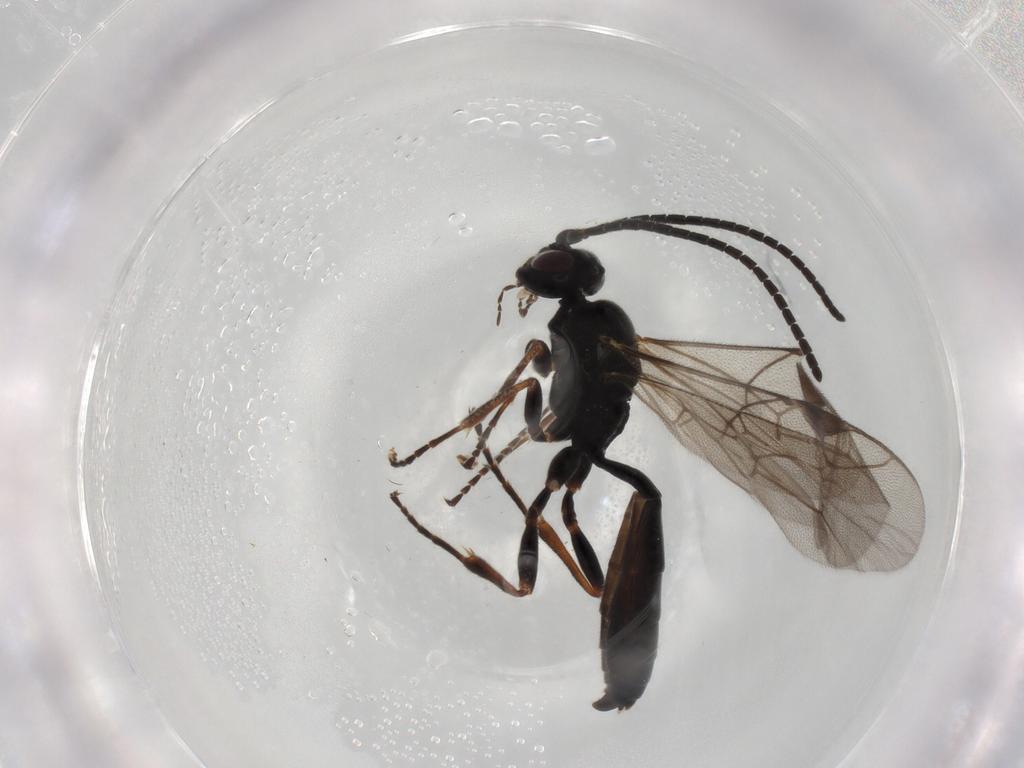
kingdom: Animalia
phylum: Arthropoda
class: Insecta
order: Hymenoptera
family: Ichneumonidae
